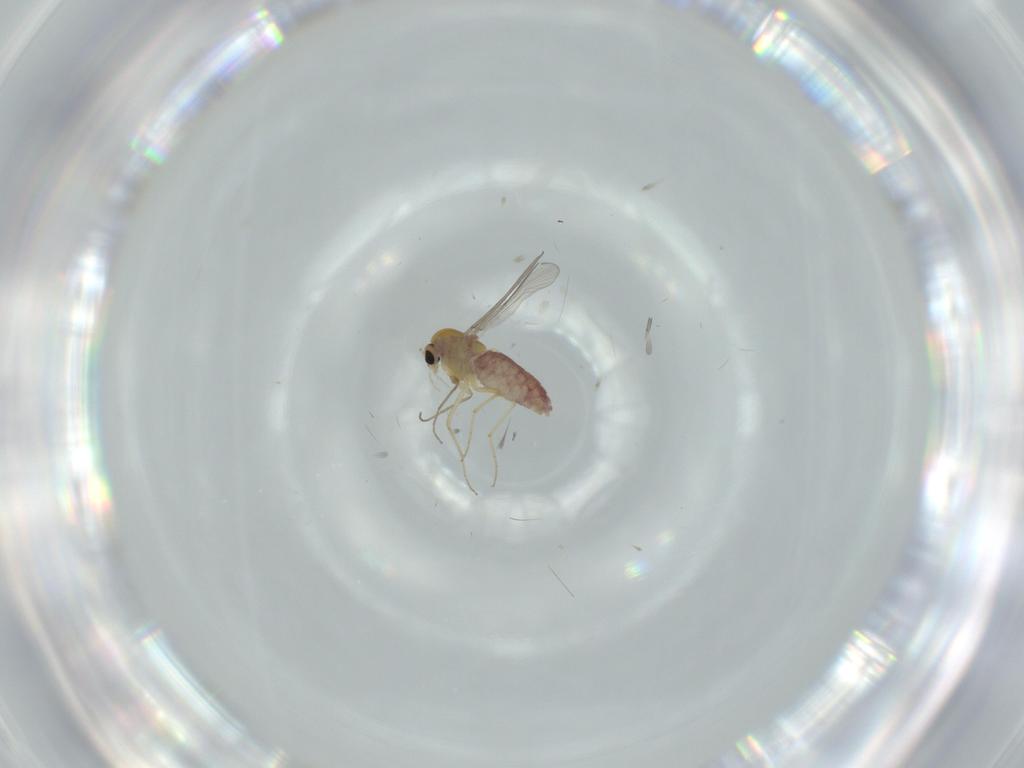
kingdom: Animalia
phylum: Arthropoda
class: Insecta
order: Diptera
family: Chironomidae
